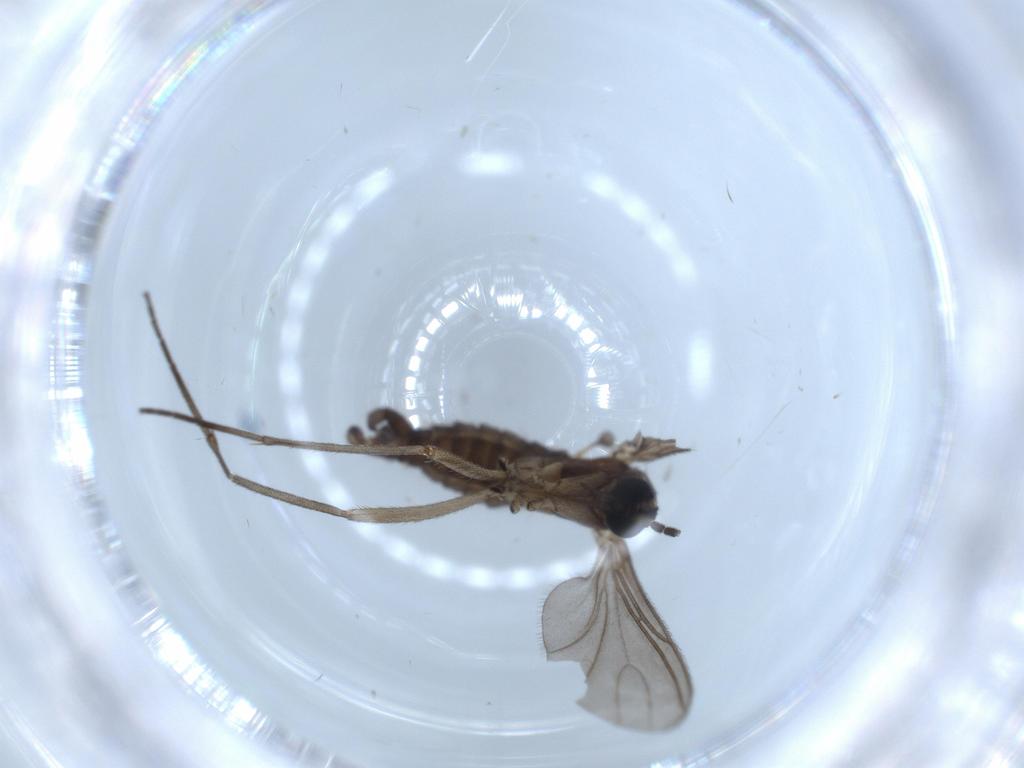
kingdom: Animalia
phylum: Arthropoda
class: Insecta
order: Diptera
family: Sciaridae
